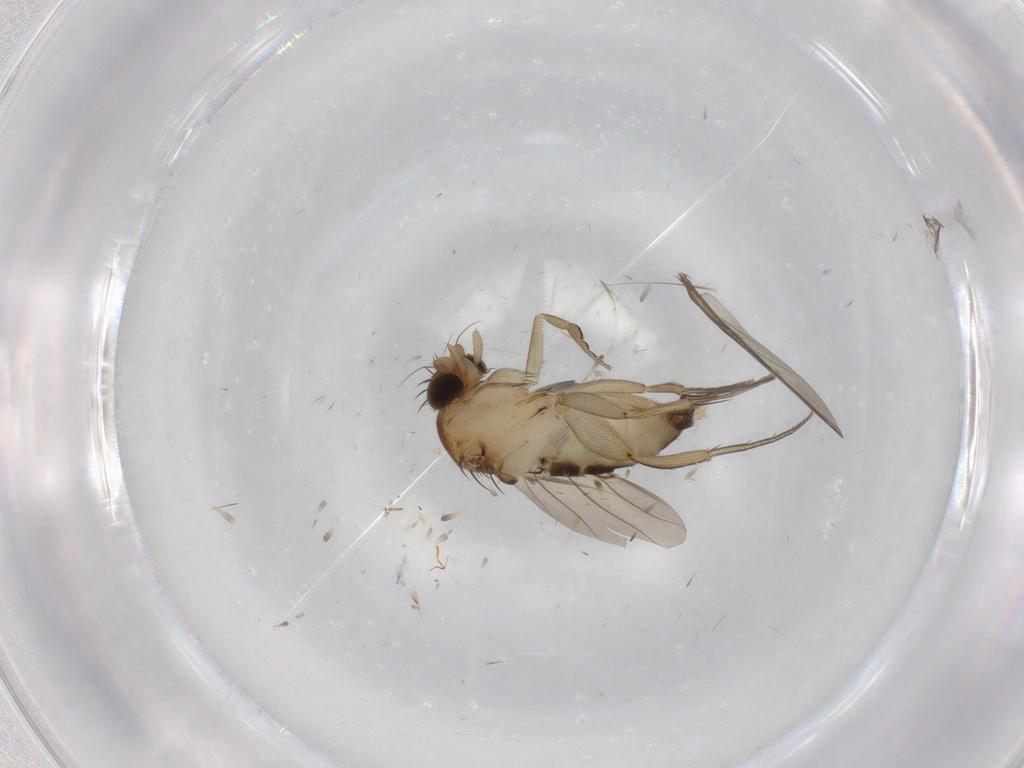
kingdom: Animalia
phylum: Arthropoda
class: Insecta
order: Diptera
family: Phoridae
